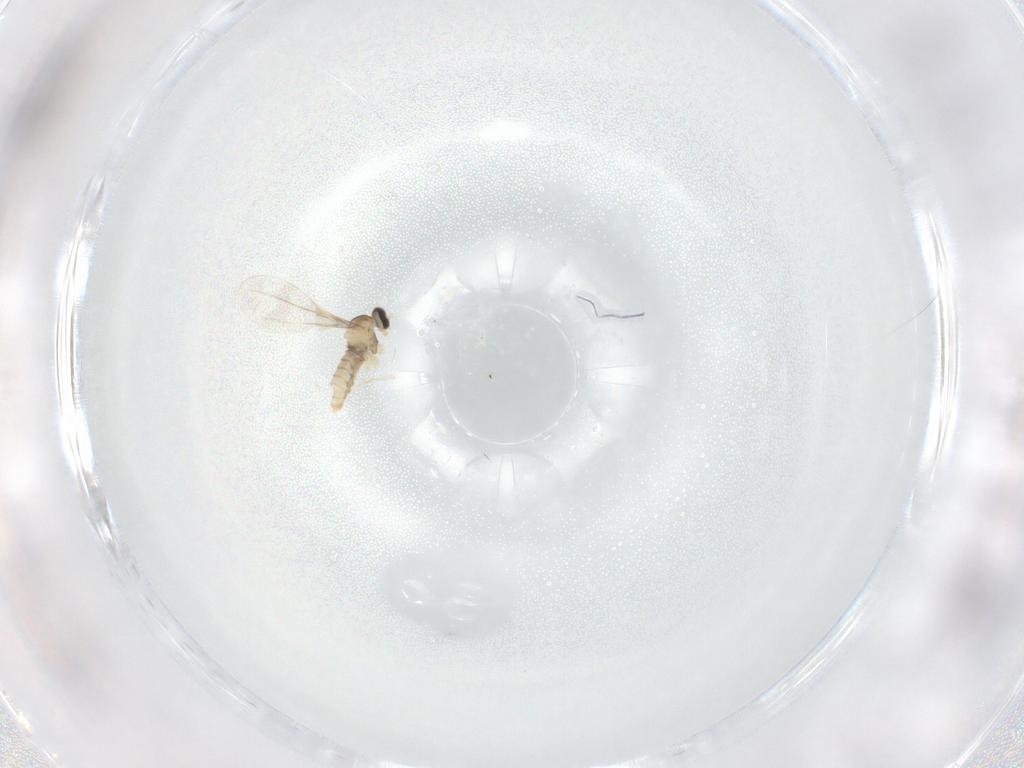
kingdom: Animalia
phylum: Arthropoda
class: Insecta
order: Diptera
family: Cecidomyiidae
